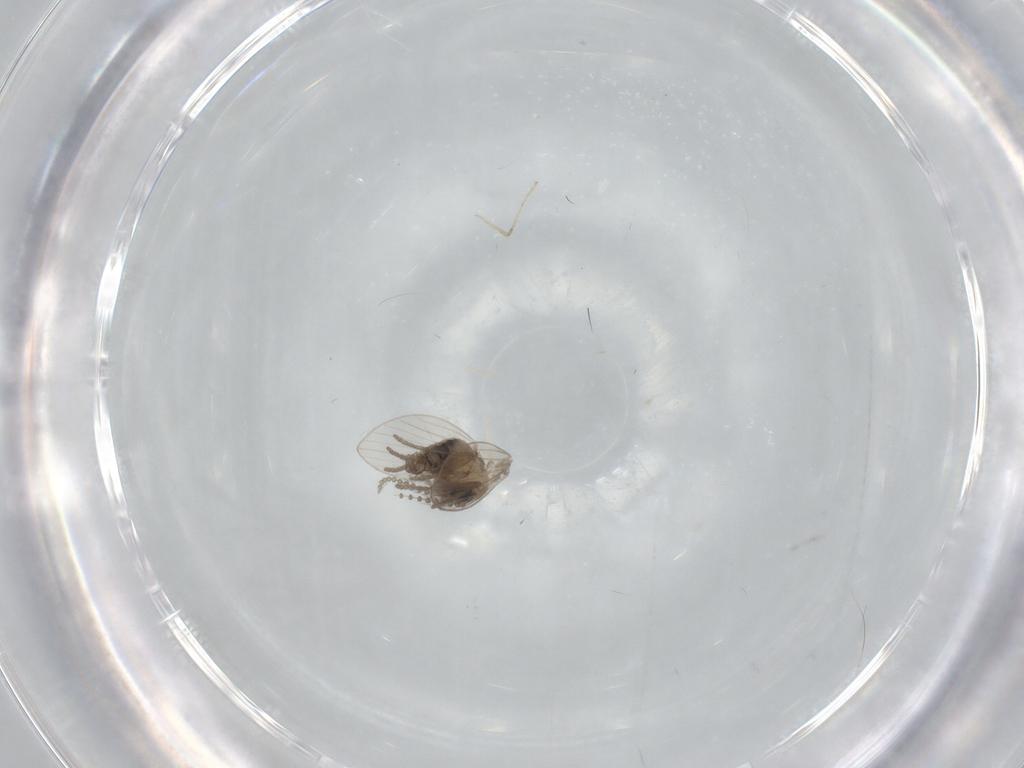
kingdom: Animalia
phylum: Arthropoda
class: Insecta
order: Diptera
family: Psychodidae
